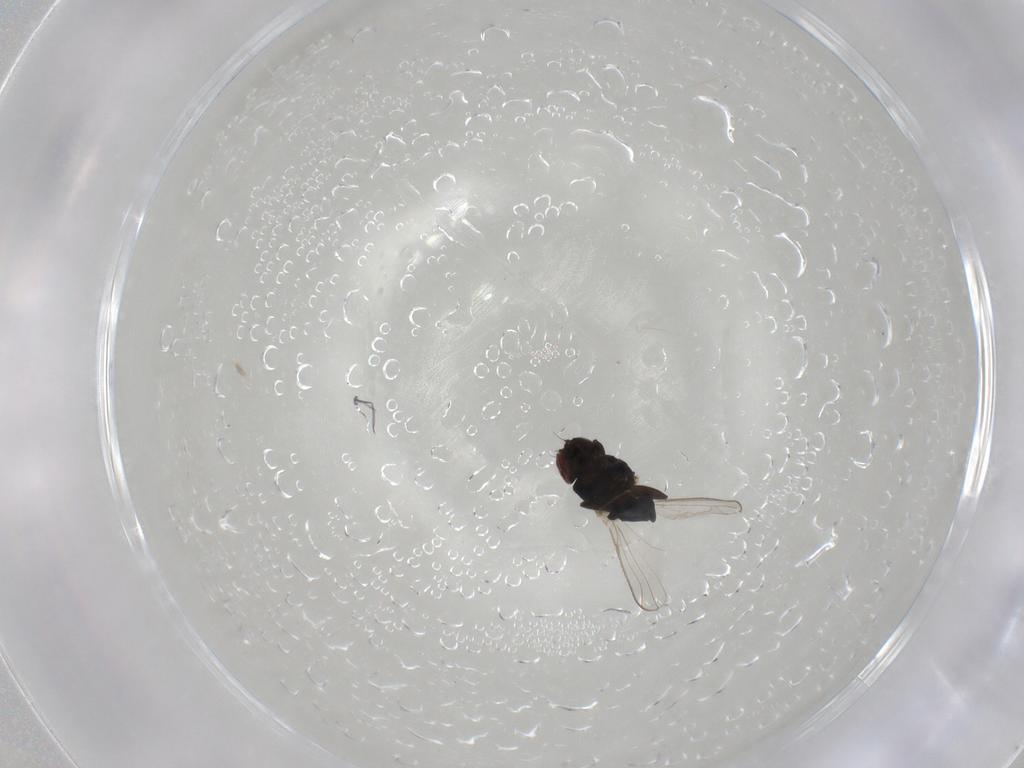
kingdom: Animalia
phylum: Arthropoda
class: Insecta
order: Diptera
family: Carnidae
